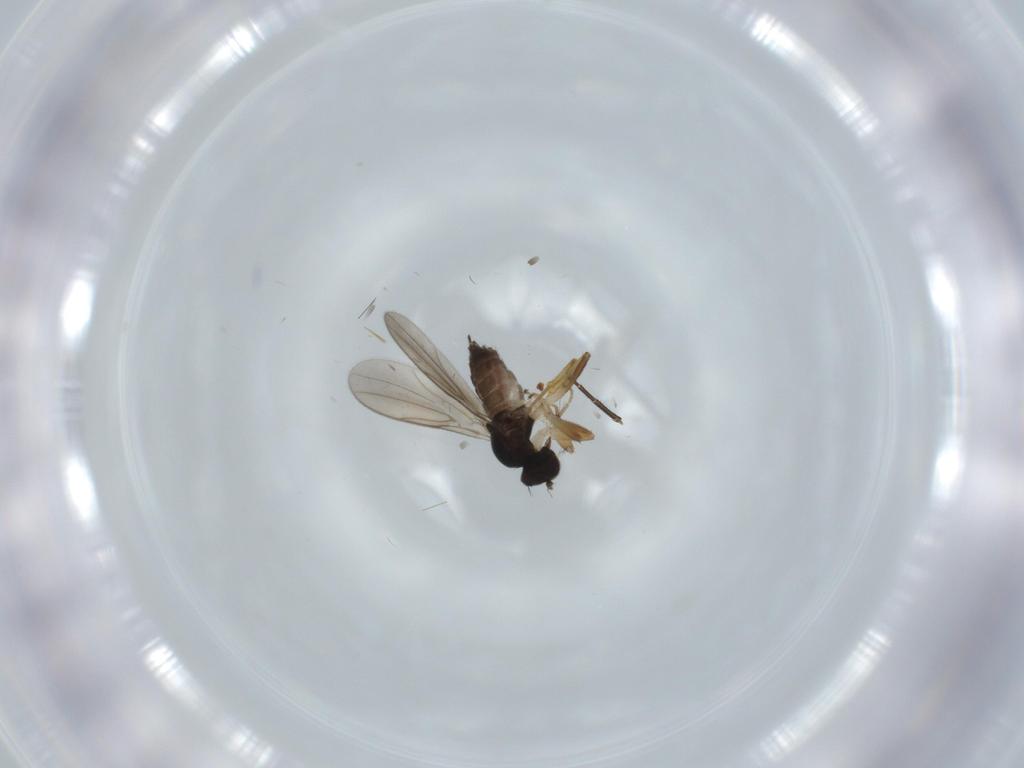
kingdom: Animalia
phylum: Arthropoda
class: Insecta
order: Diptera
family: Hybotidae
